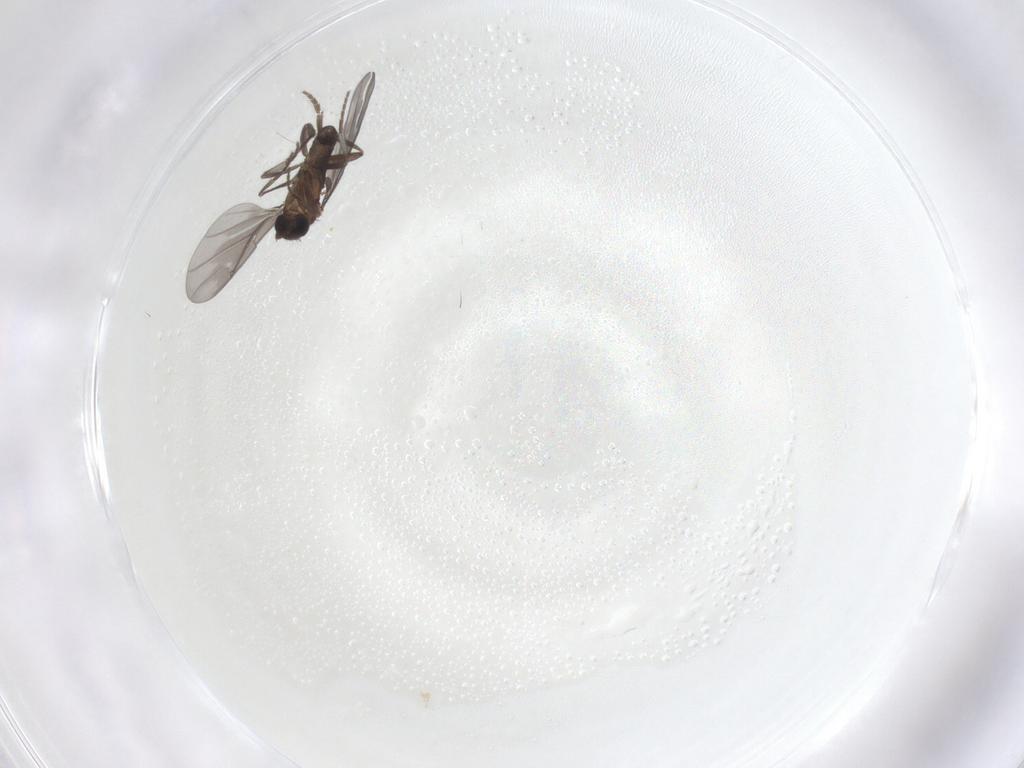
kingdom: Animalia
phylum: Arthropoda
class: Insecta
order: Diptera
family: Phoridae
